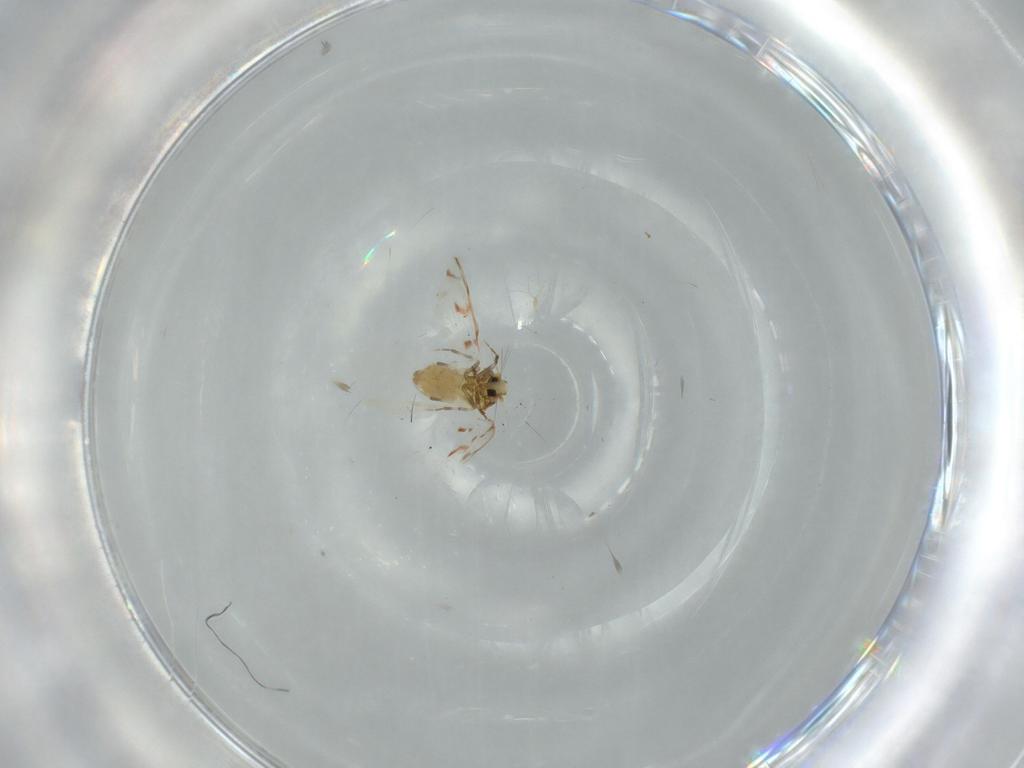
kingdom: Animalia
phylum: Arthropoda
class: Insecta
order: Hemiptera
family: Aleyrodidae
